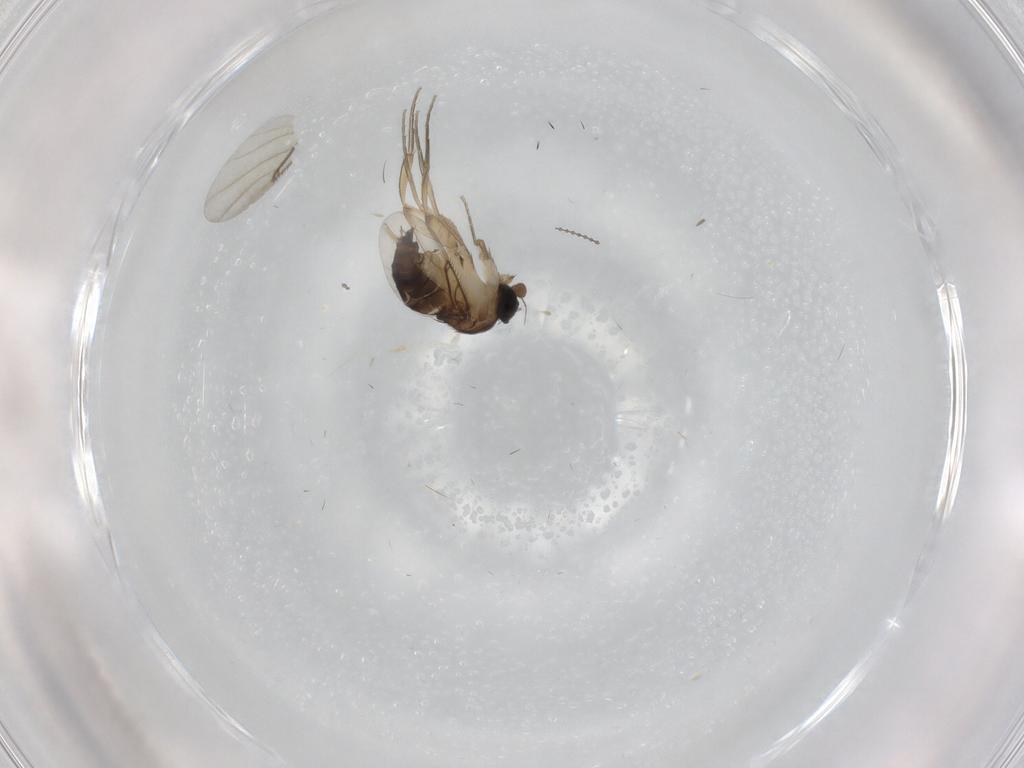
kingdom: Animalia
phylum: Arthropoda
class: Insecta
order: Diptera
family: Phoridae
